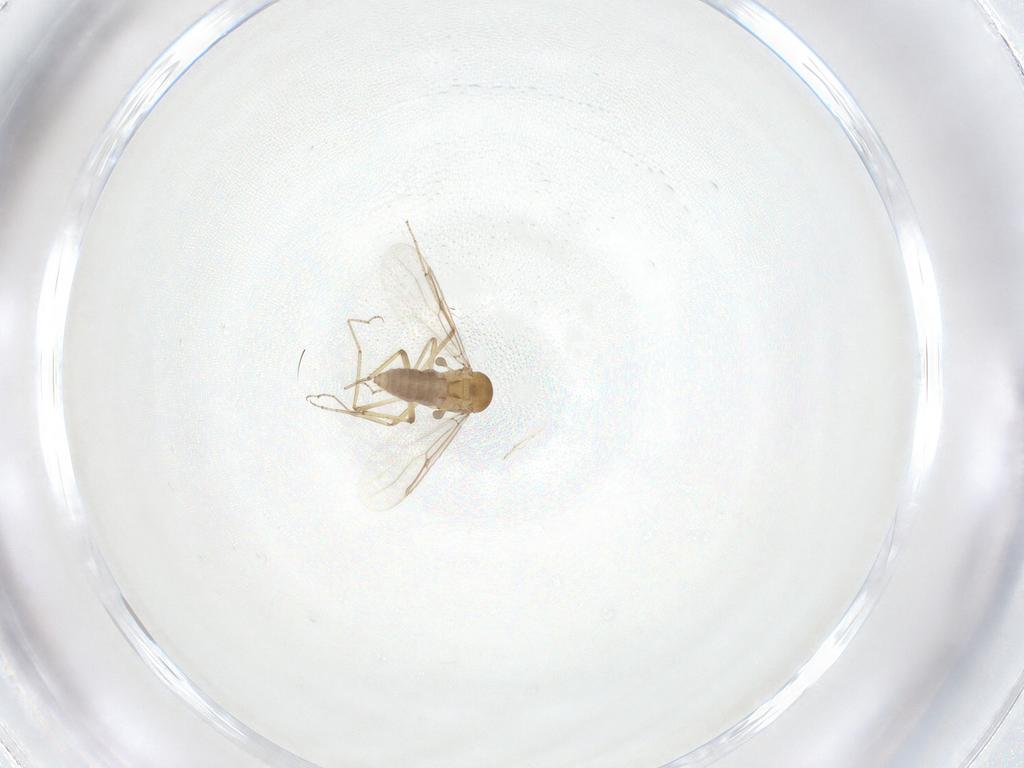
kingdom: Animalia
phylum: Arthropoda
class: Insecta
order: Diptera
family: Ceratopogonidae
